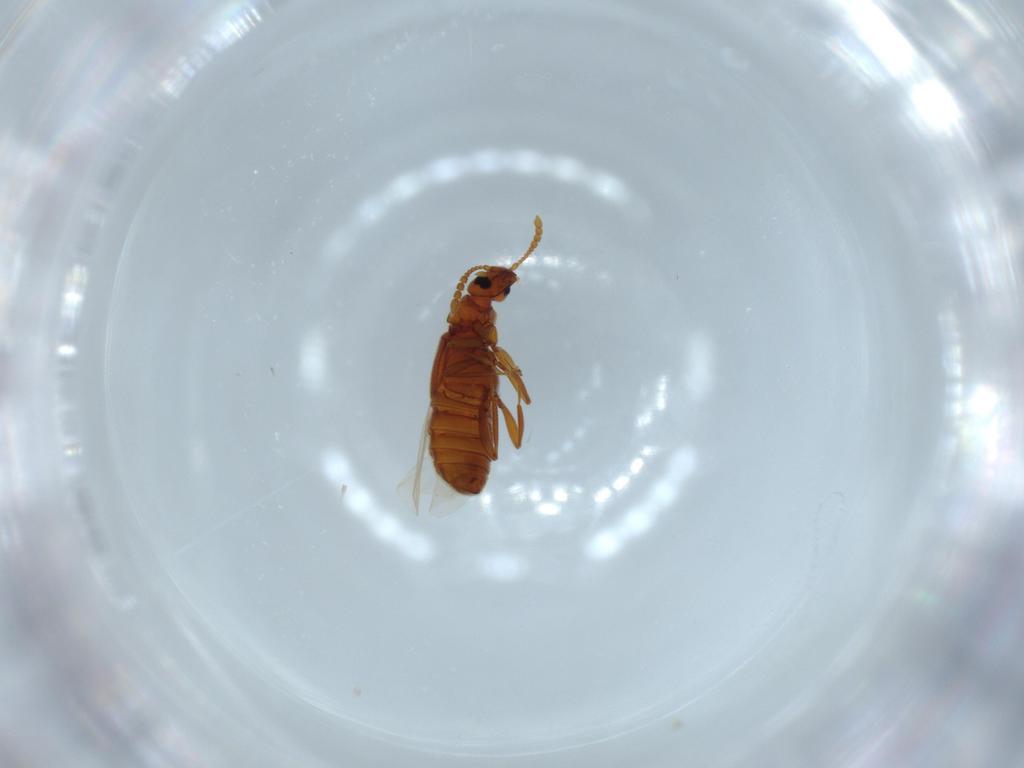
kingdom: Animalia
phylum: Arthropoda
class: Insecta
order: Coleoptera
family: Staphylinidae
